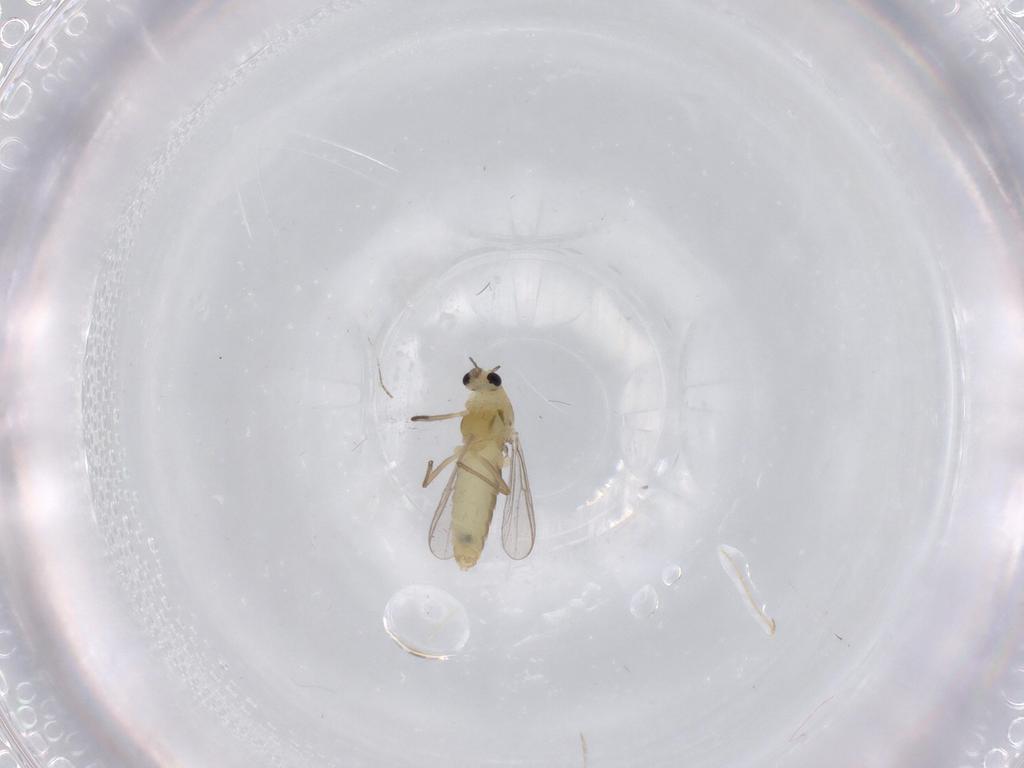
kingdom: Animalia
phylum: Arthropoda
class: Insecta
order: Diptera
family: Chironomidae
